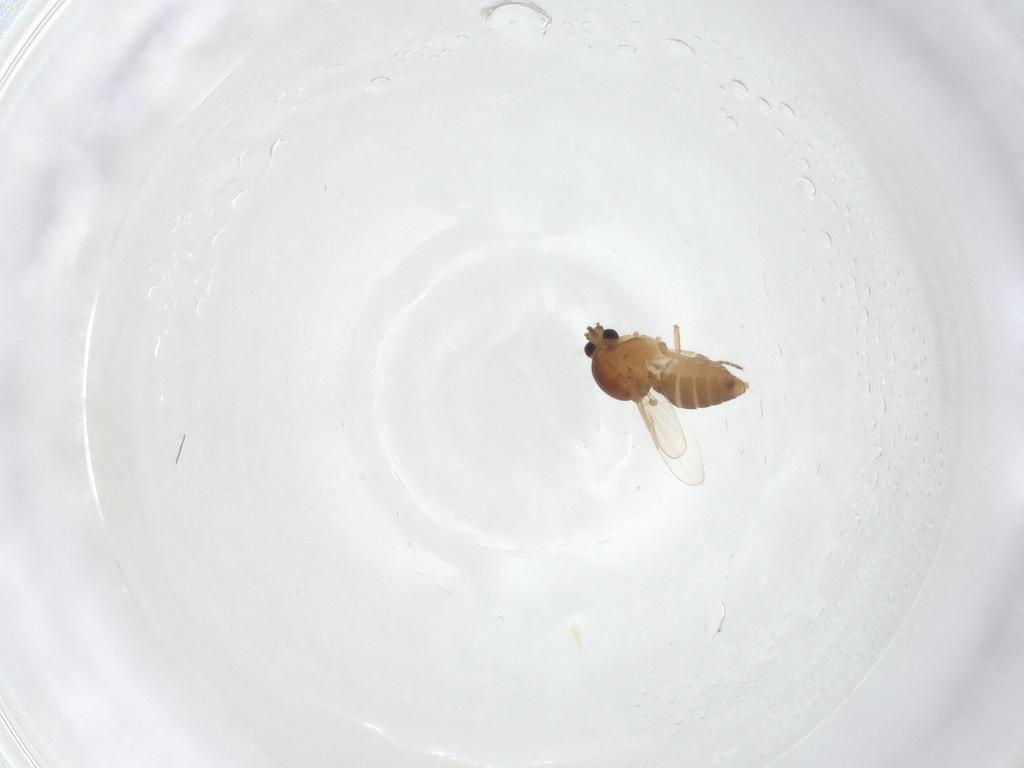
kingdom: Animalia
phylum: Arthropoda
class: Insecta
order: Diptera
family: Ceratopogonidae
